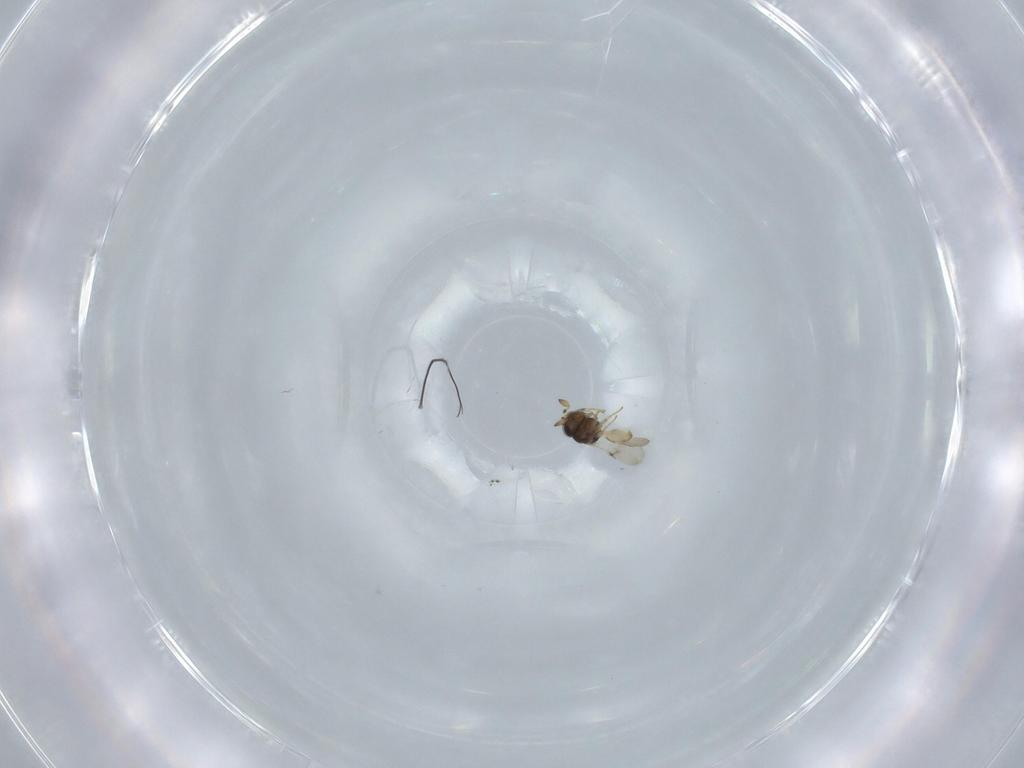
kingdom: Animalia
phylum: Arthropoda
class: Insecta
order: Hymenoptera
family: Scelionidae
